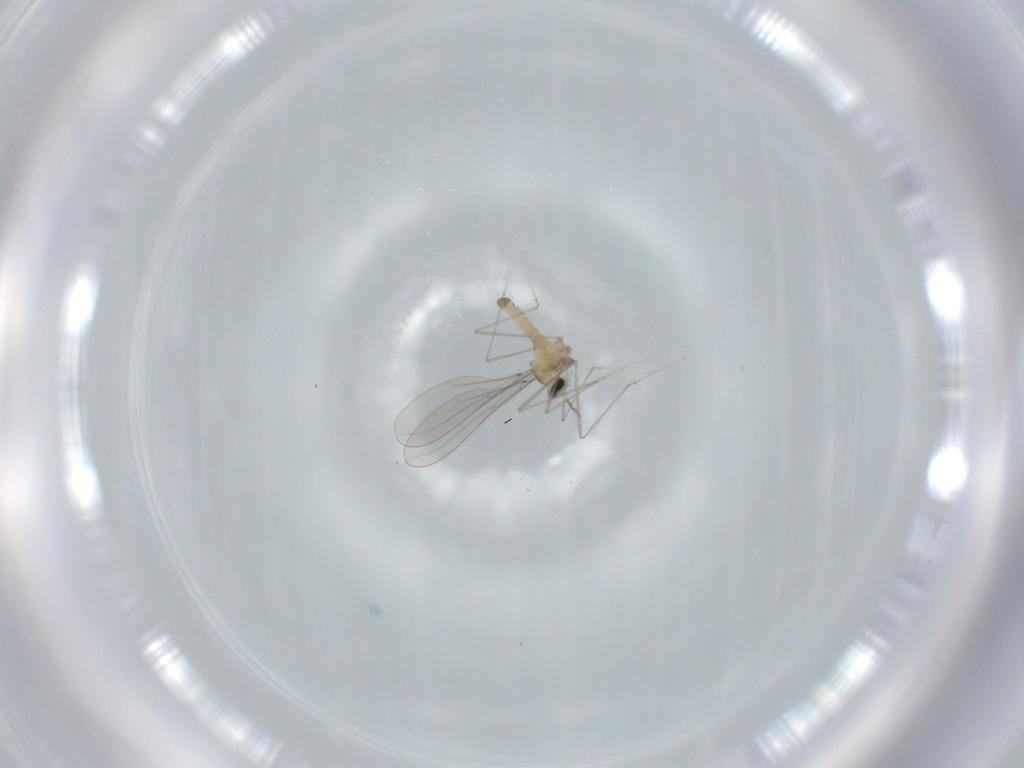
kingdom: Animalia
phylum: Arthropoda
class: Insecta
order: Diptera
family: Cecidomyiidae
